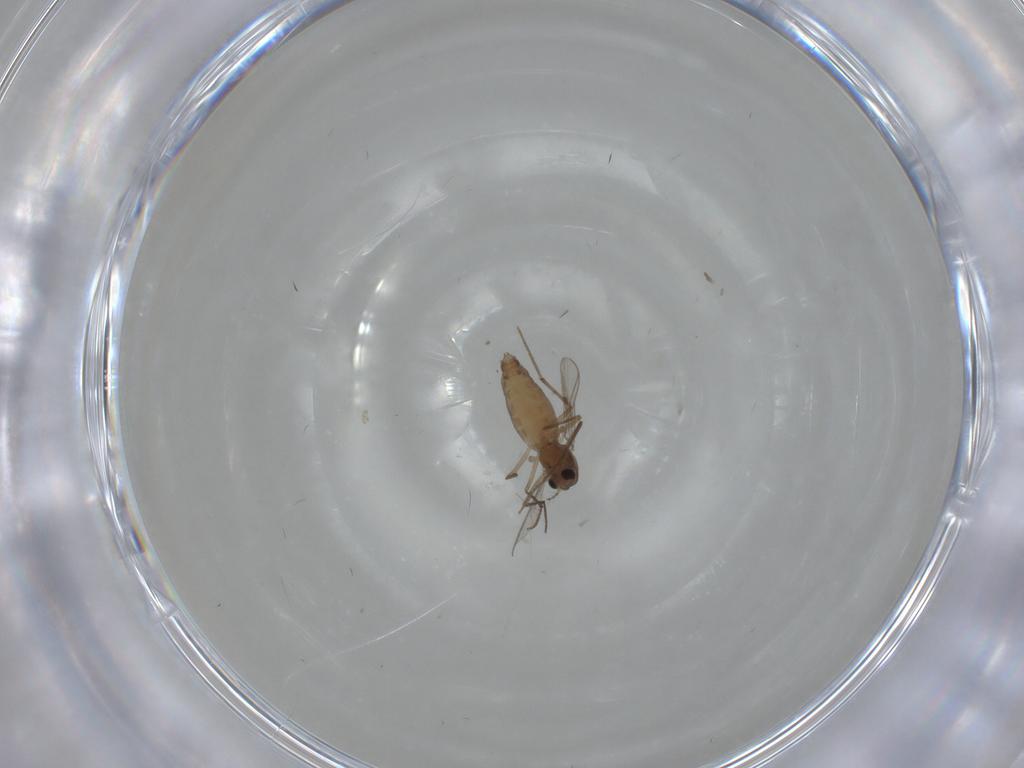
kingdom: Animalia
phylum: Arthropoda
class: Insecta
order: Diptera
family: Cecidomyiidae
